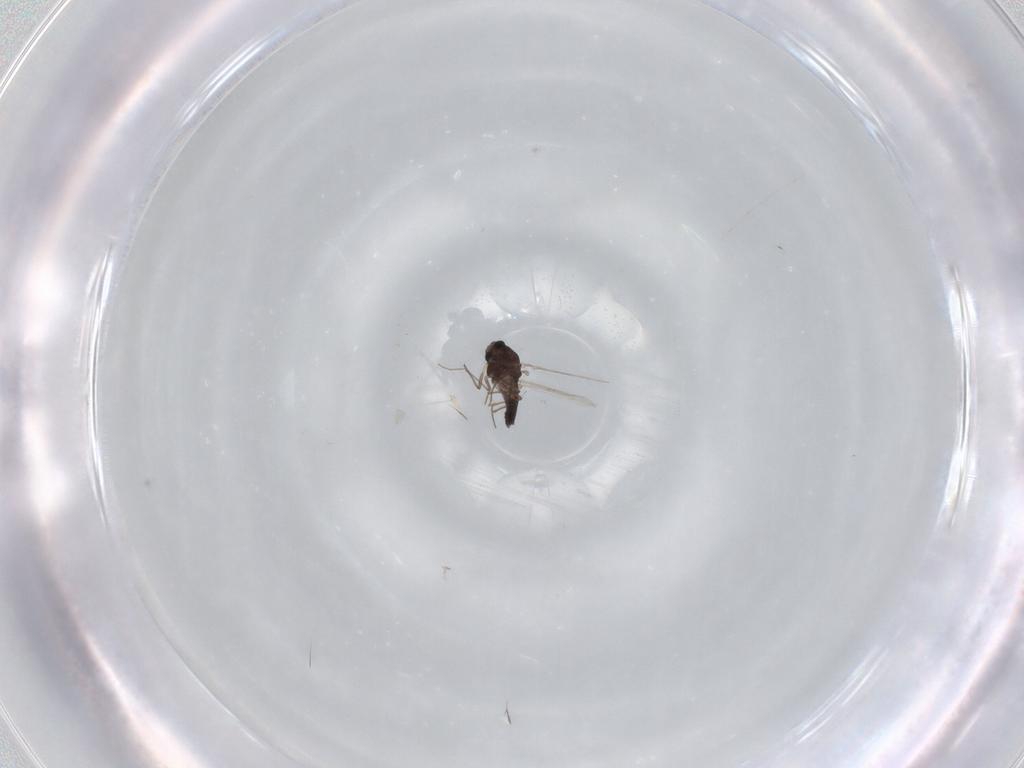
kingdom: Animalia
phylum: Arthropoda
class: Insecta
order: Diptera
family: Chironomidae
